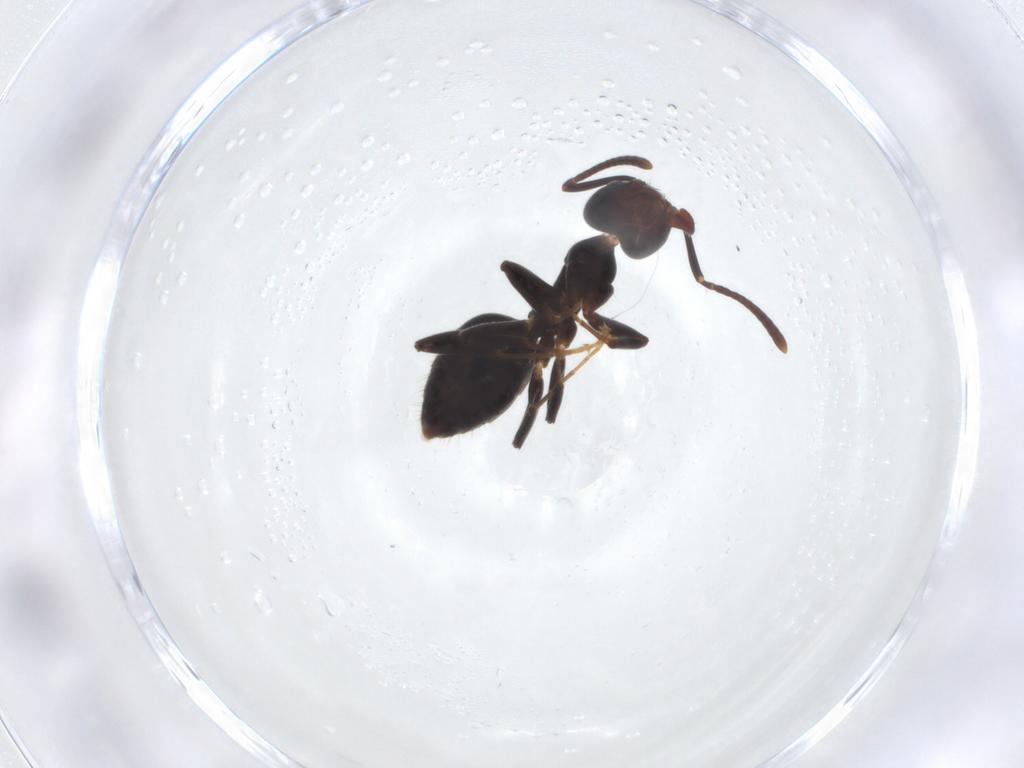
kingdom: Animalia
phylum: Arthropoda
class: Insecta
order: Hymenoptera
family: Formicidae
